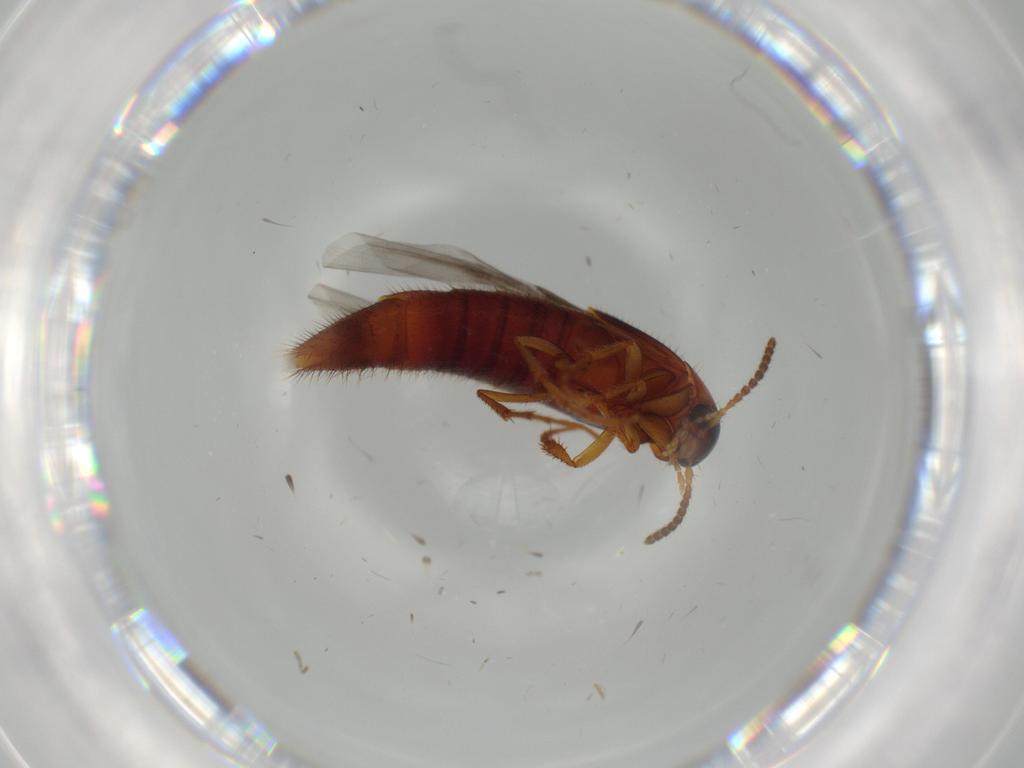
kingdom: Animalia
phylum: Arthropoda
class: Insecta
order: Coleoptera
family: Staphylinidae
